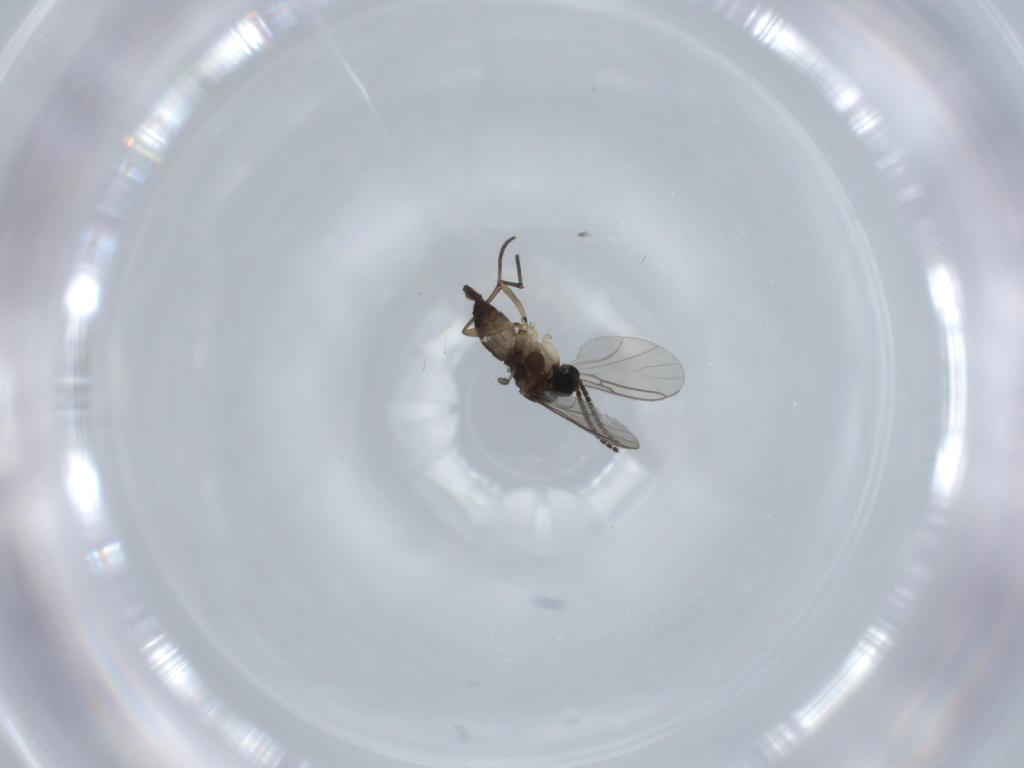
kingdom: Animalia
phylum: Arthropoda
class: Insecta
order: Diptera
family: Sciaridae
